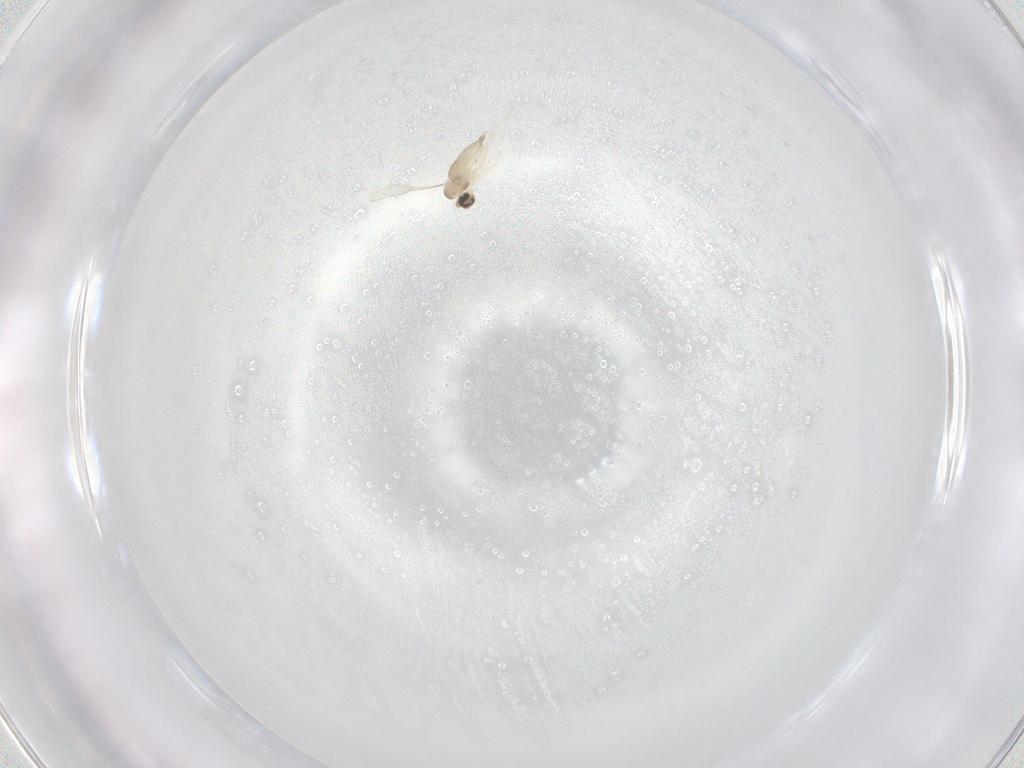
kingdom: Animalia
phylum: Arthropoda
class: Insecta
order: Diptera
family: Phoridae
